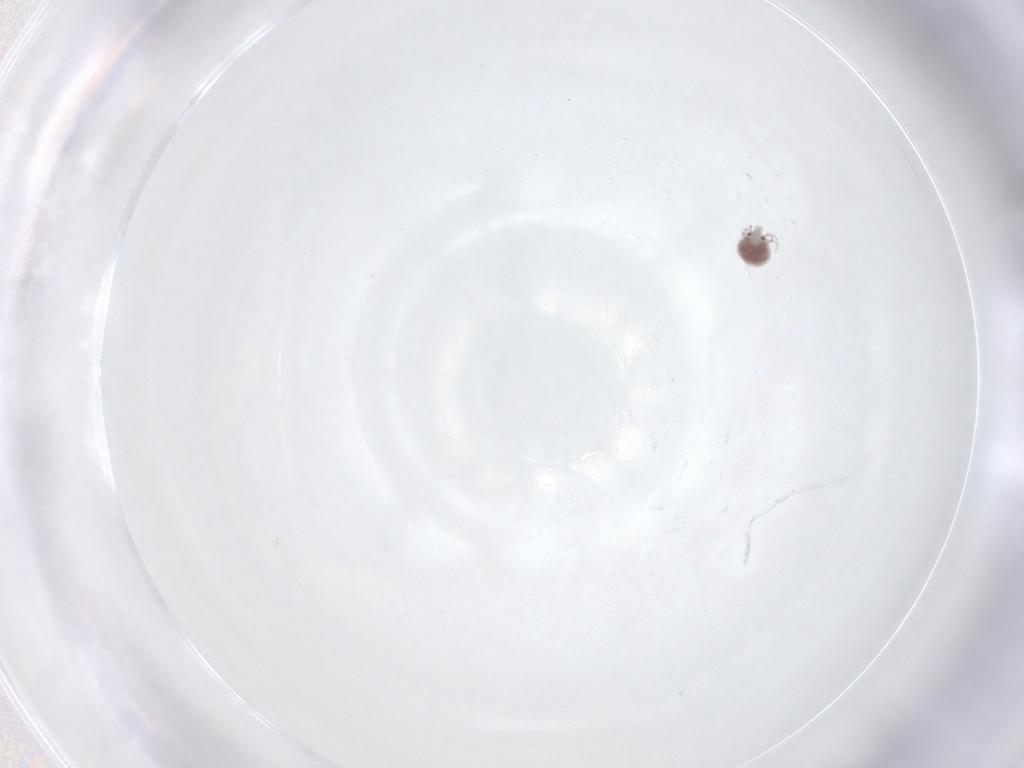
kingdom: Animalia
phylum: Arthropoda
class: Arachnida
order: Trombidiformes
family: Pionidae
